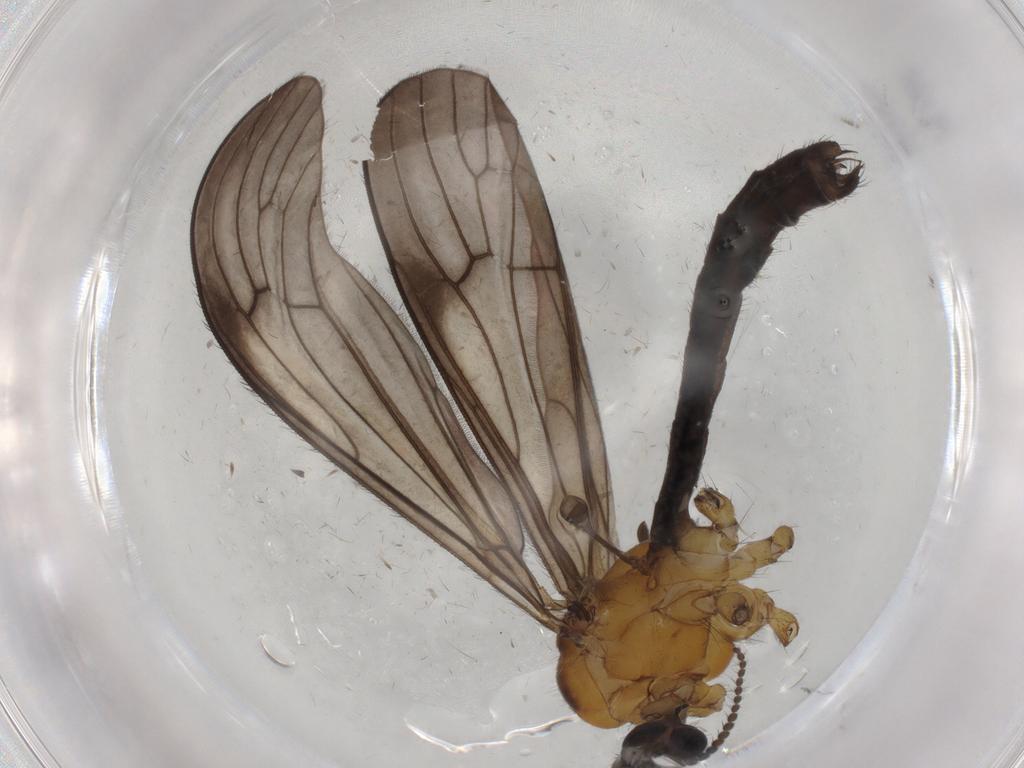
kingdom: Animalia
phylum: Arthropoda
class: Insecta
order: Diptera
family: Limoniidae
